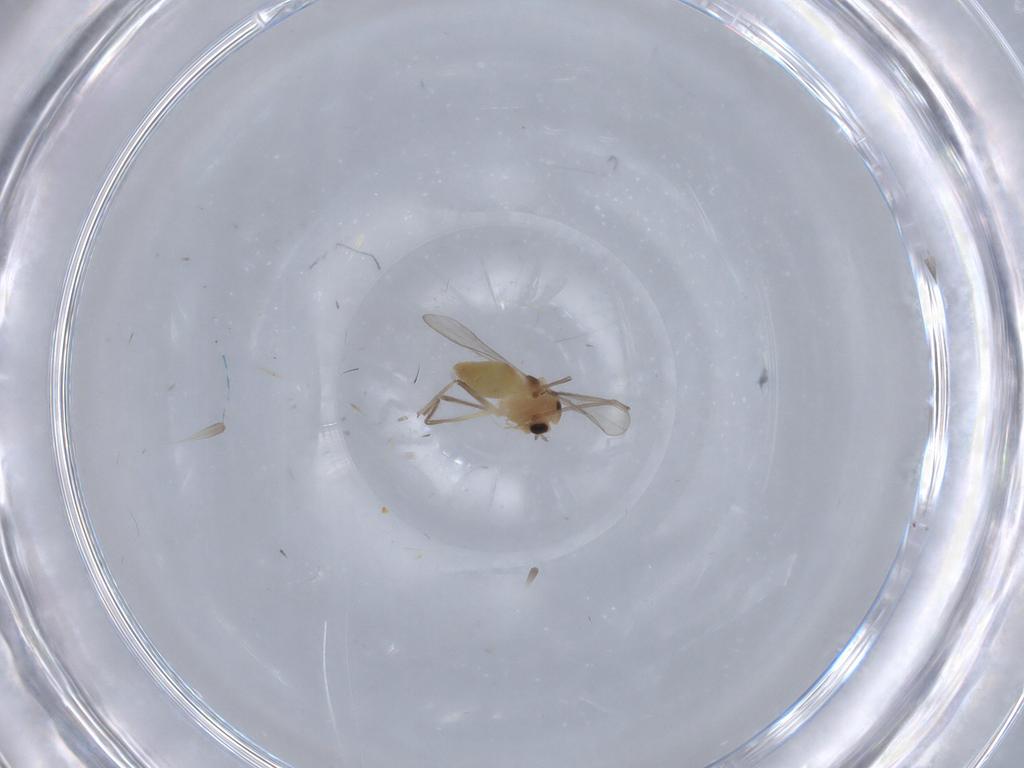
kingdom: Animalia
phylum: Arthropoda
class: Insecta
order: Diptera
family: Chironomidae
